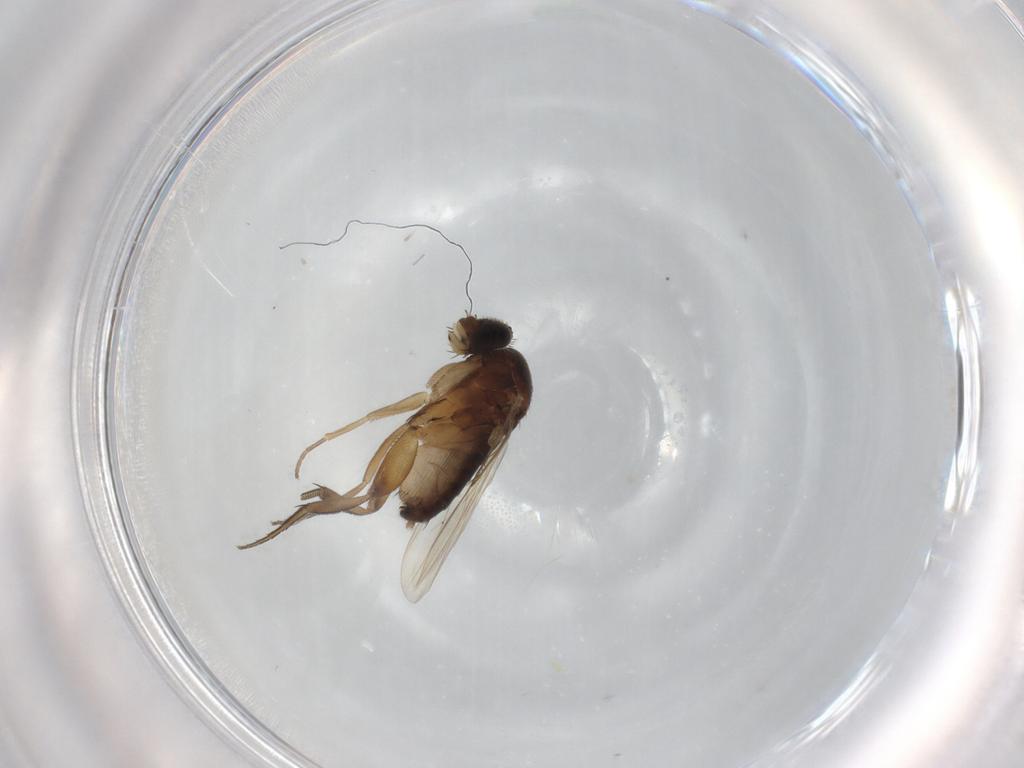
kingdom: Animalia
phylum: Arthropoda
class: Insecta
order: Diptera
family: Phoridae
